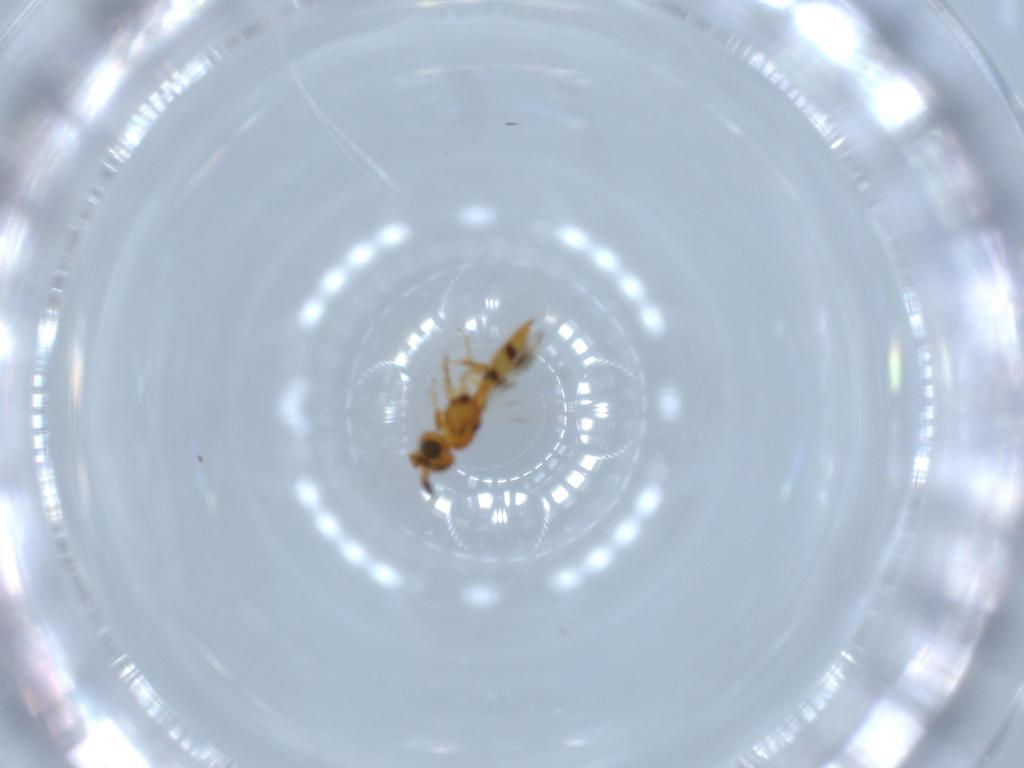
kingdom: Animalia
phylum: Arthropoda
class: Insecta
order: Hymenoptera
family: Scelionidae
